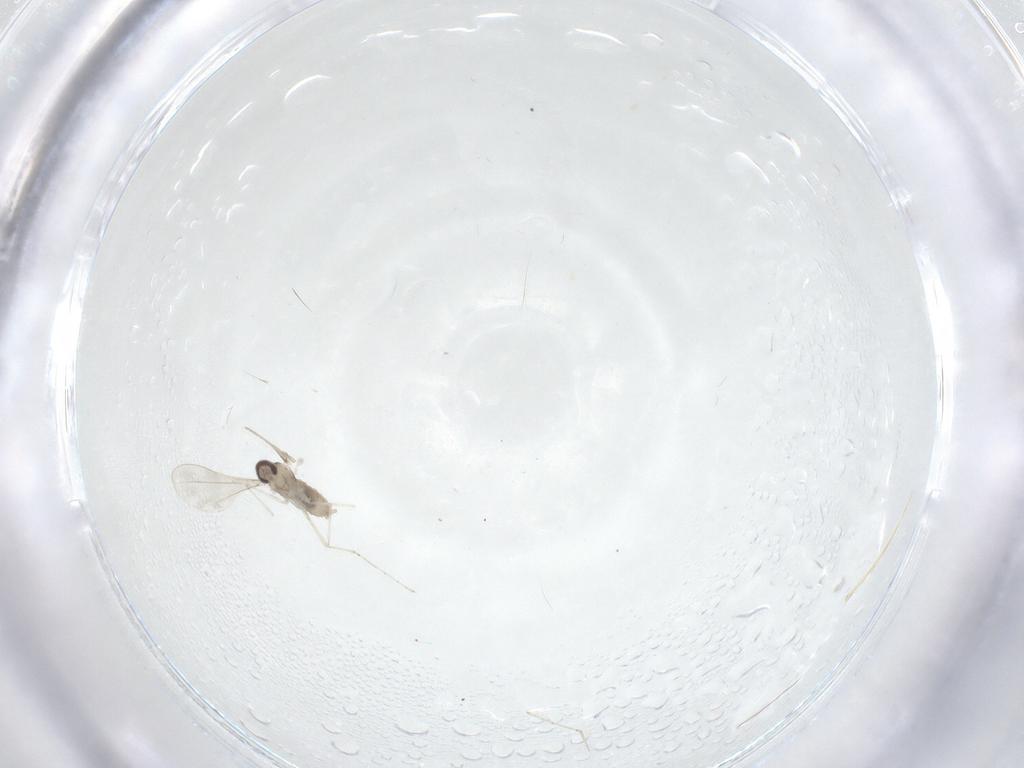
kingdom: Animalia
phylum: Arthropoda
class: Insecta
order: Diptera
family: Cecidomyiidae
